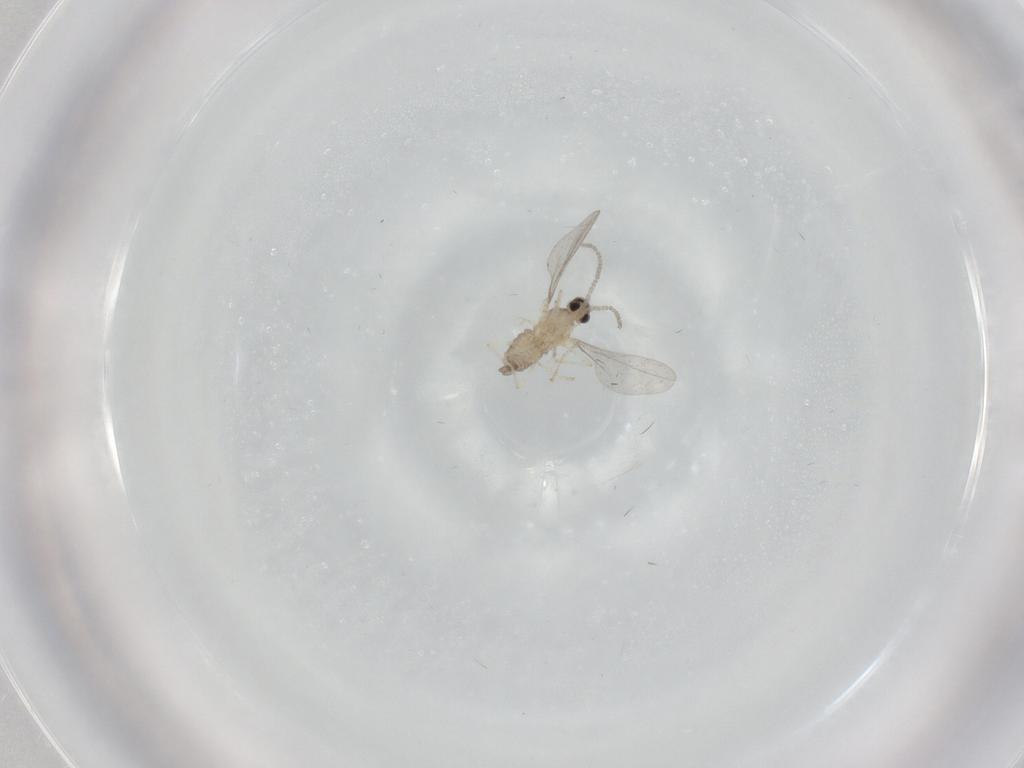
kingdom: Animalia
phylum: Arthropoda
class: Insecta
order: Diptera
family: Cecidomyiidae
